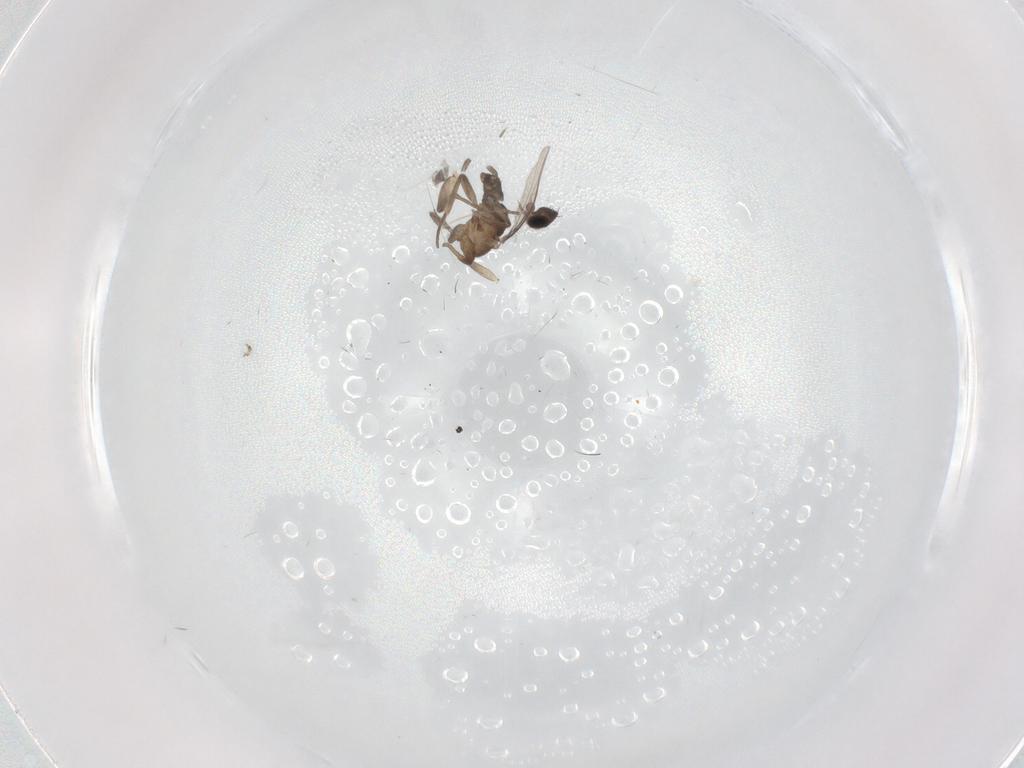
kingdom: Animalia
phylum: Arthropoda
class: Insecta
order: Diptera
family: Phoridae
